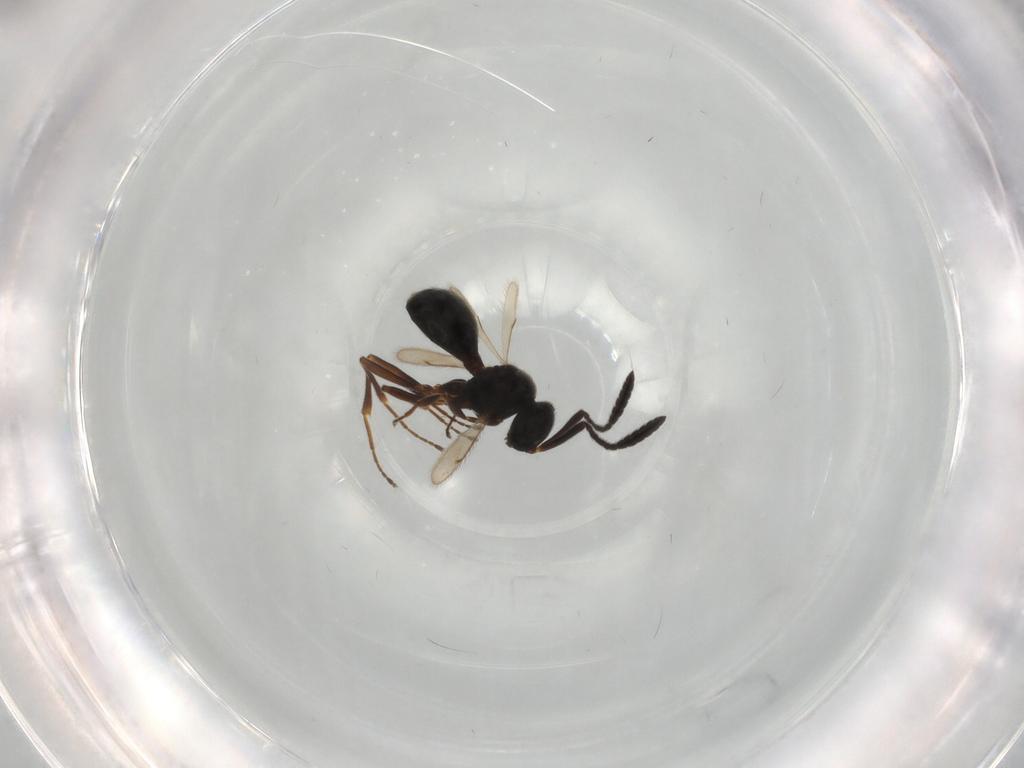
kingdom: Animalia
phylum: Arthropoda
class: Insecta
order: Hymenoptera
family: Scelionidae
